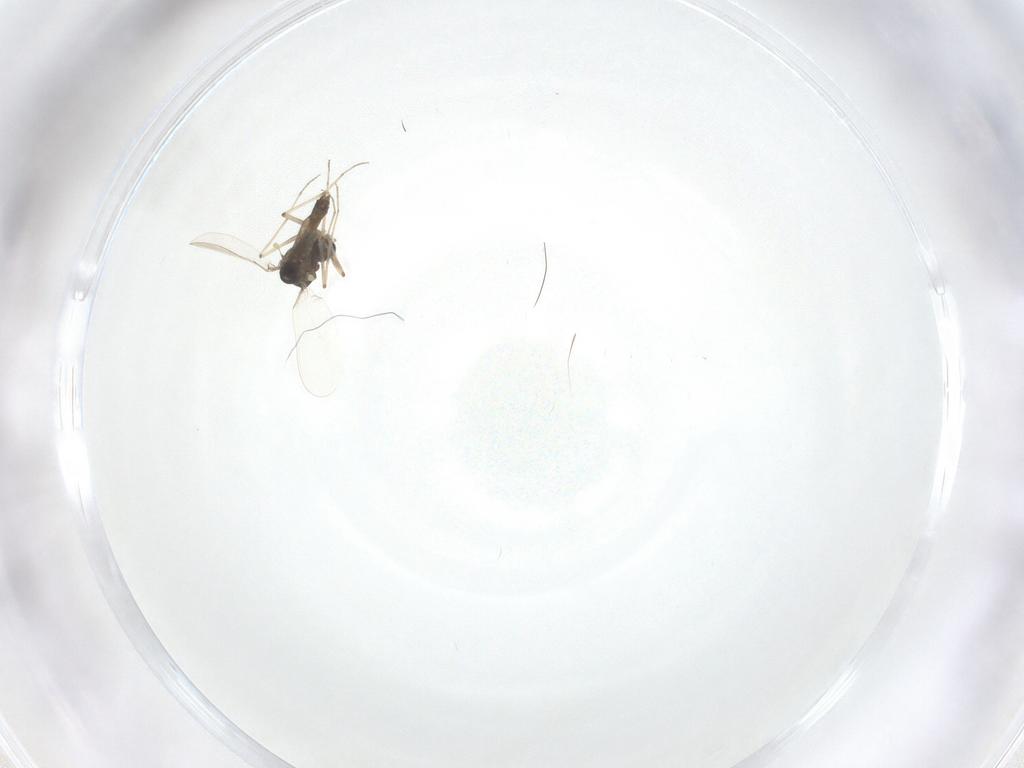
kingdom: Animalia
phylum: Arthropoda
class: Insecta
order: Diptera
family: Chironomidae
